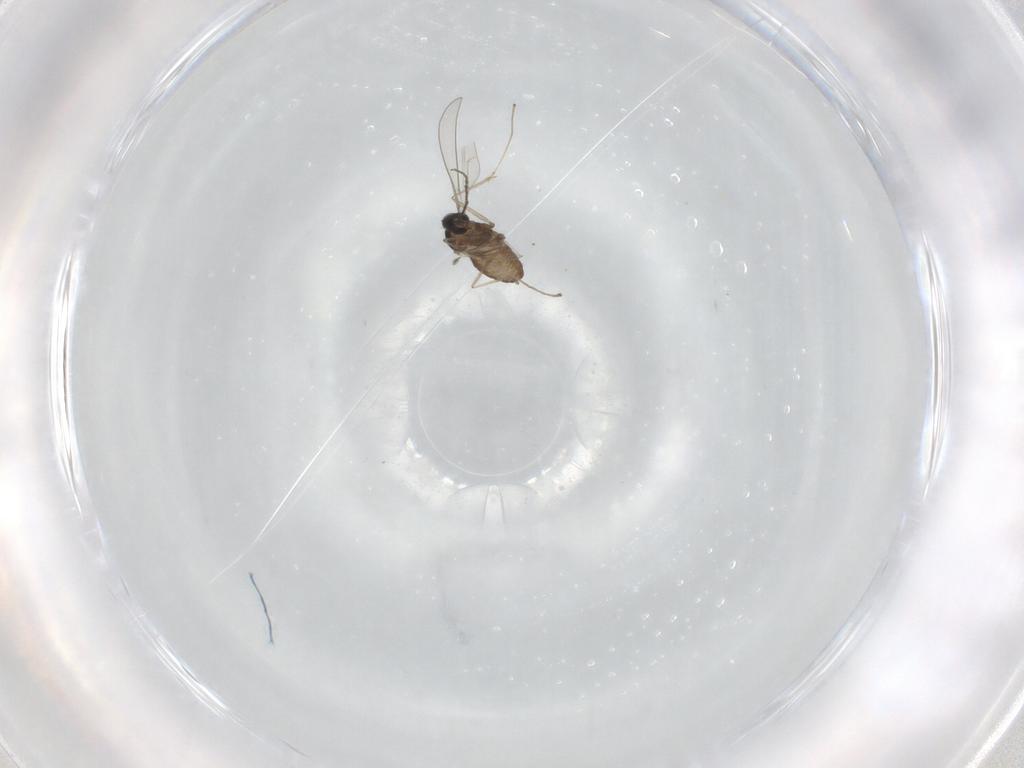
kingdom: Animalia
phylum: Arthropoda
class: Insecta
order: Diptera
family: Cecidomyiidae
